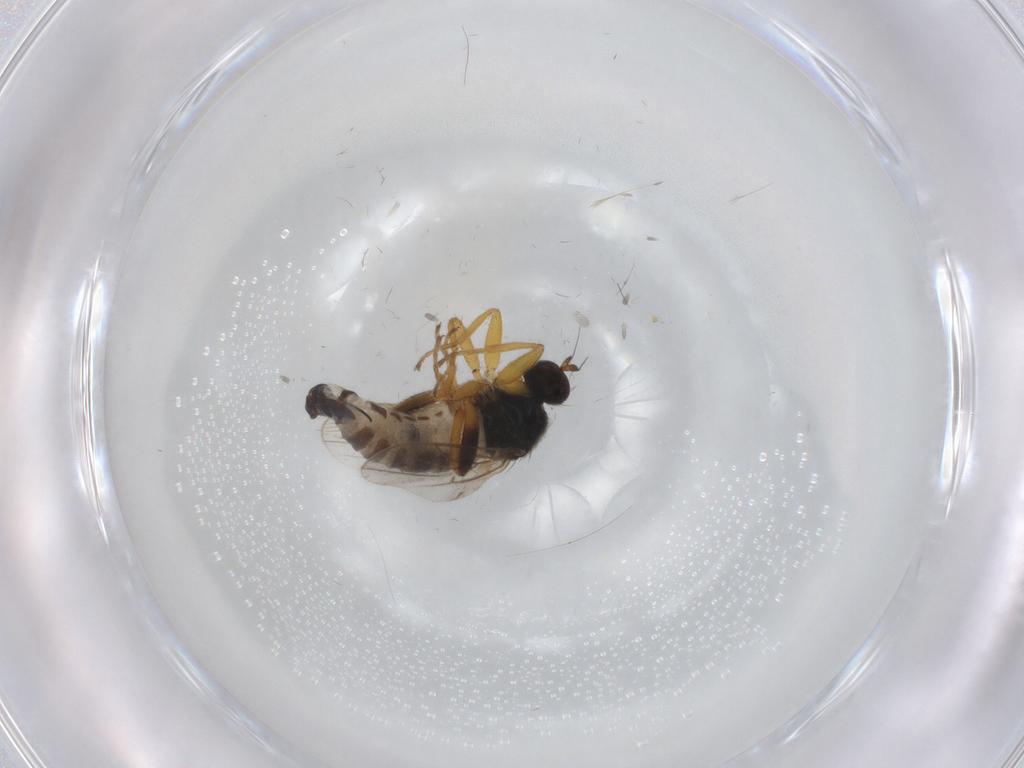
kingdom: Animalia
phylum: Arthropoda
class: Insecta
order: Diptera
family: Hybotidae
